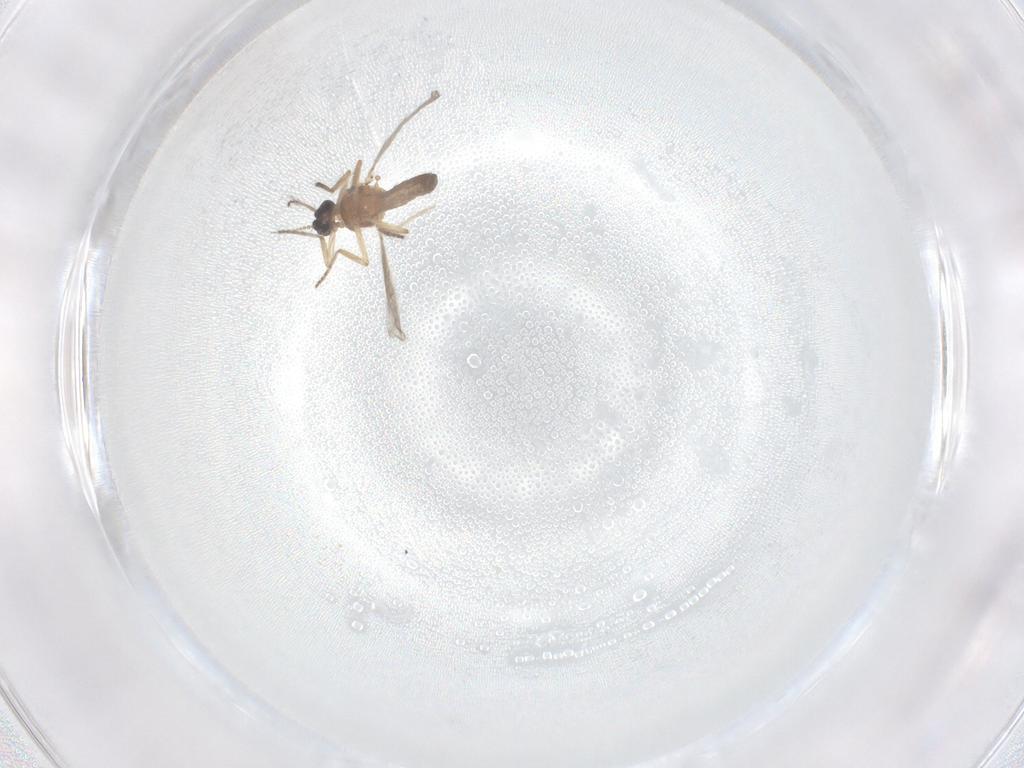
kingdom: Animalia
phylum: Arthropoda
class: Insecta
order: Diptera
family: Chironomidae
